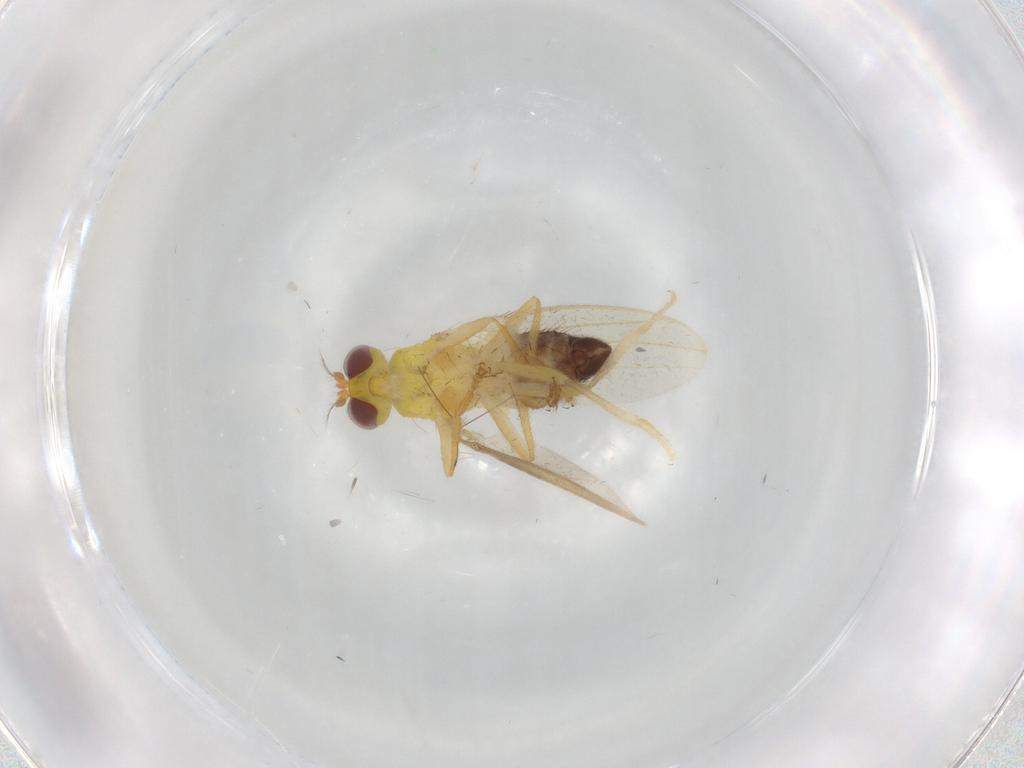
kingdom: Animalia
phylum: Arthropoda
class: Insecta
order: Diptera
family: Periscelididae
